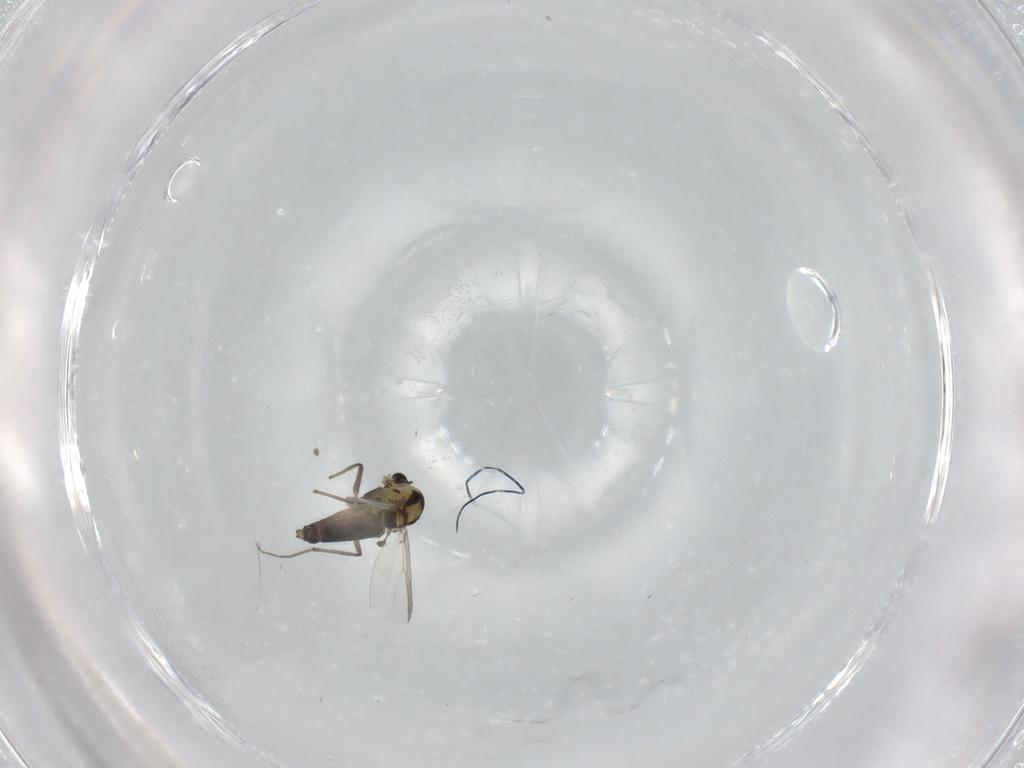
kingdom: Animalia
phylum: Arthropoda
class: Insecta
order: Diptera
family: Chironomidae
